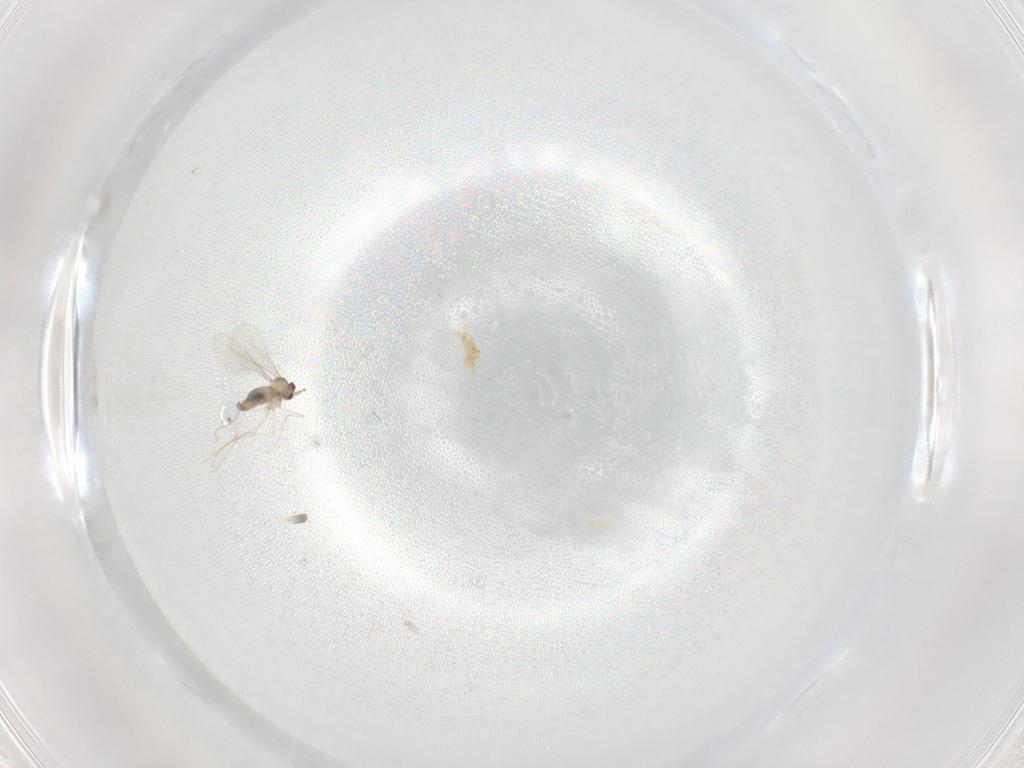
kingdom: Animalia
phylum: Arthropoda
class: Insecta
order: Diptera
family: Cecidomyiidae
